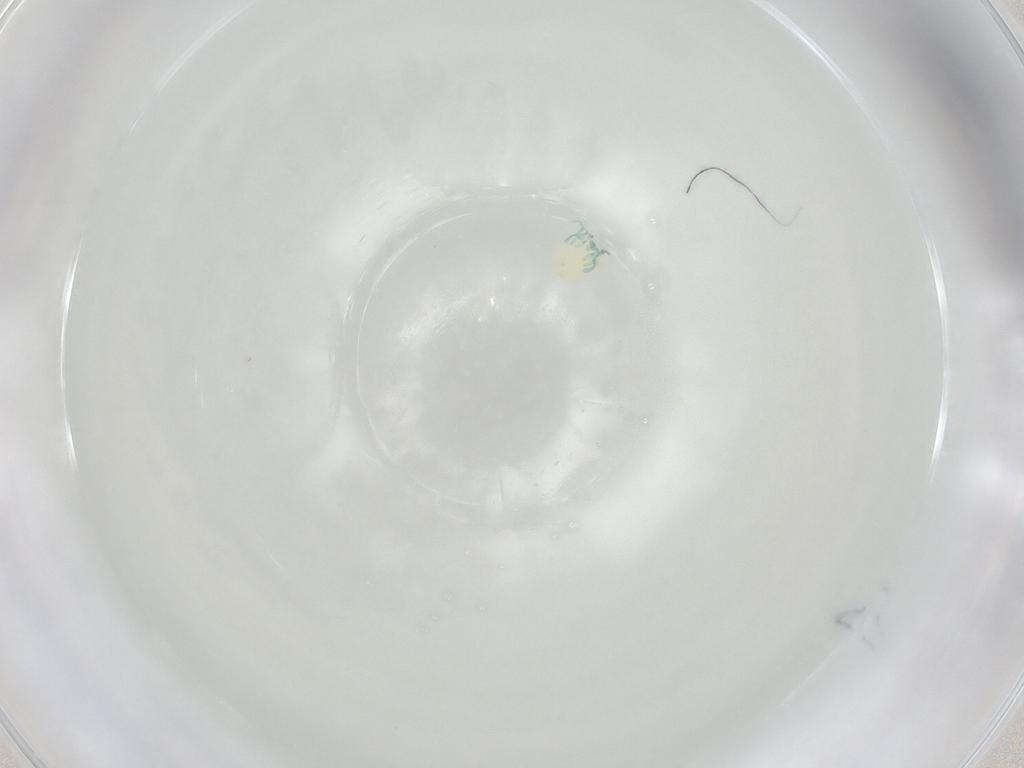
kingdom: Animalia
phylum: Arthropoda
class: Arachnida
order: Trombidiformes
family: Arrenuridae
